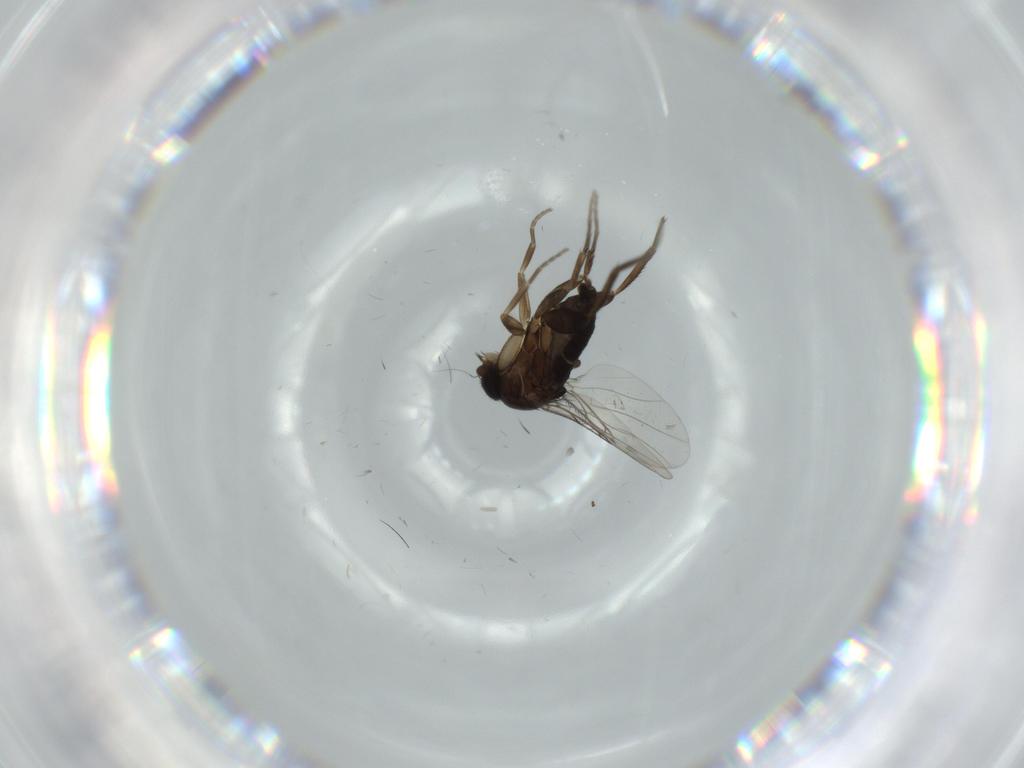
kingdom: Animalia
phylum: Arthropoda
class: Insecta
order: Diptera
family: Phoridae
